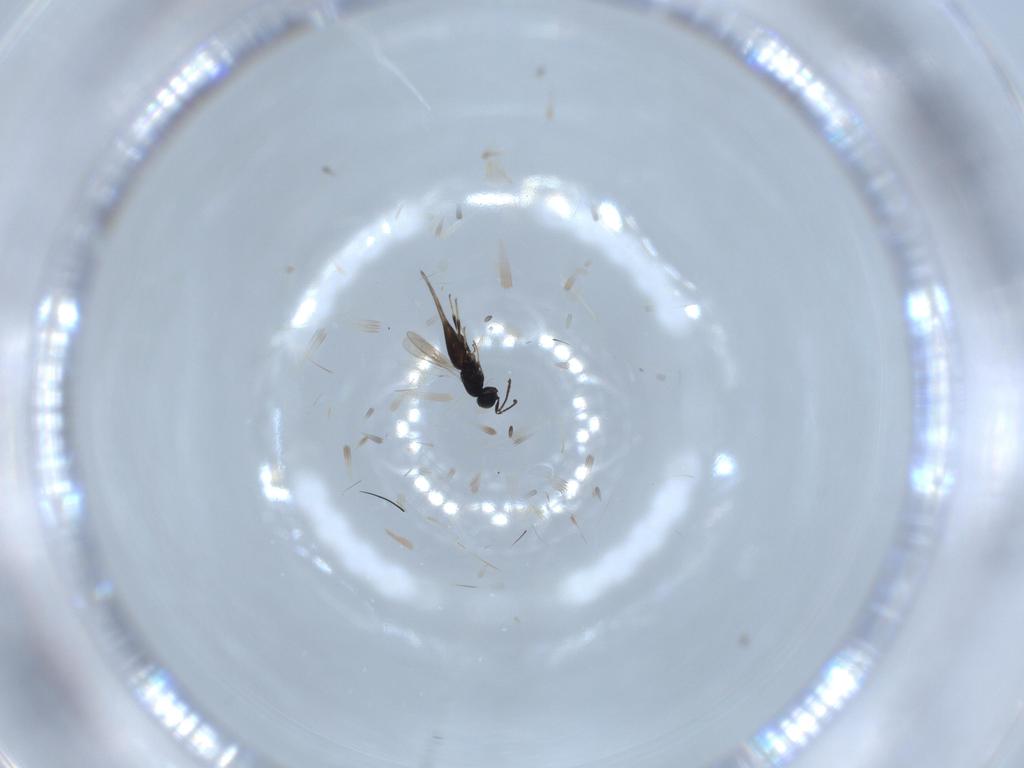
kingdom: Animalia
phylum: Arthropoda
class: Insecta
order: Hymenoptera
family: Scelionidae
